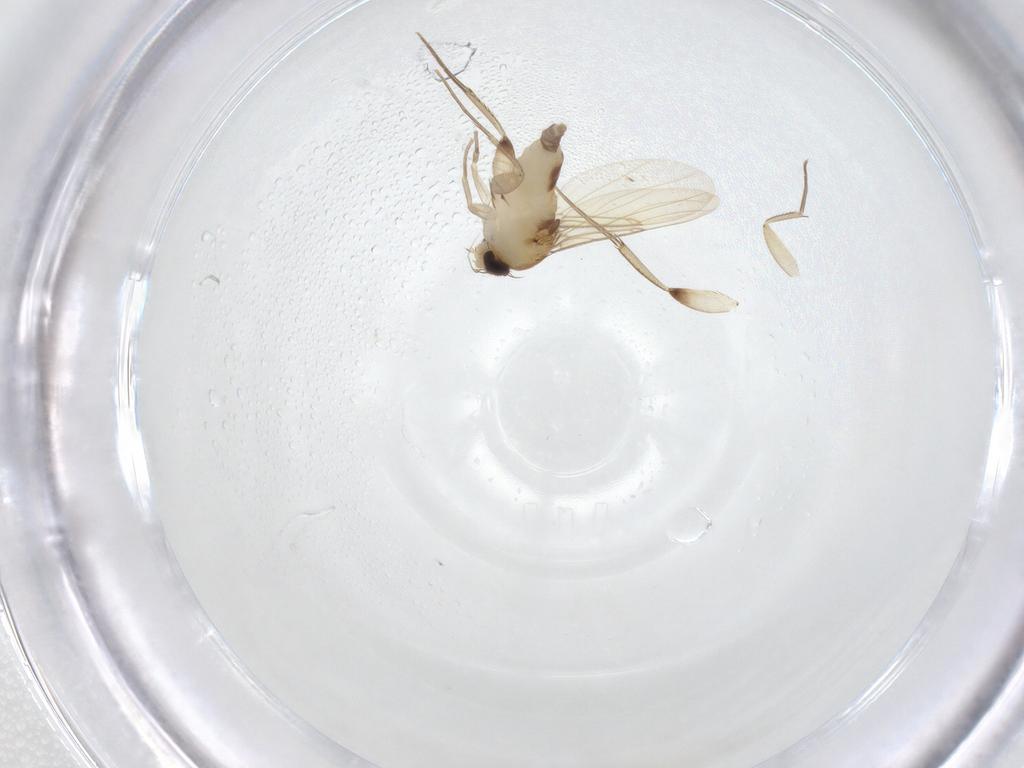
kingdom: Animalia
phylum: Arthropoda
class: Insecta
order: Diptera
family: Phoridae
